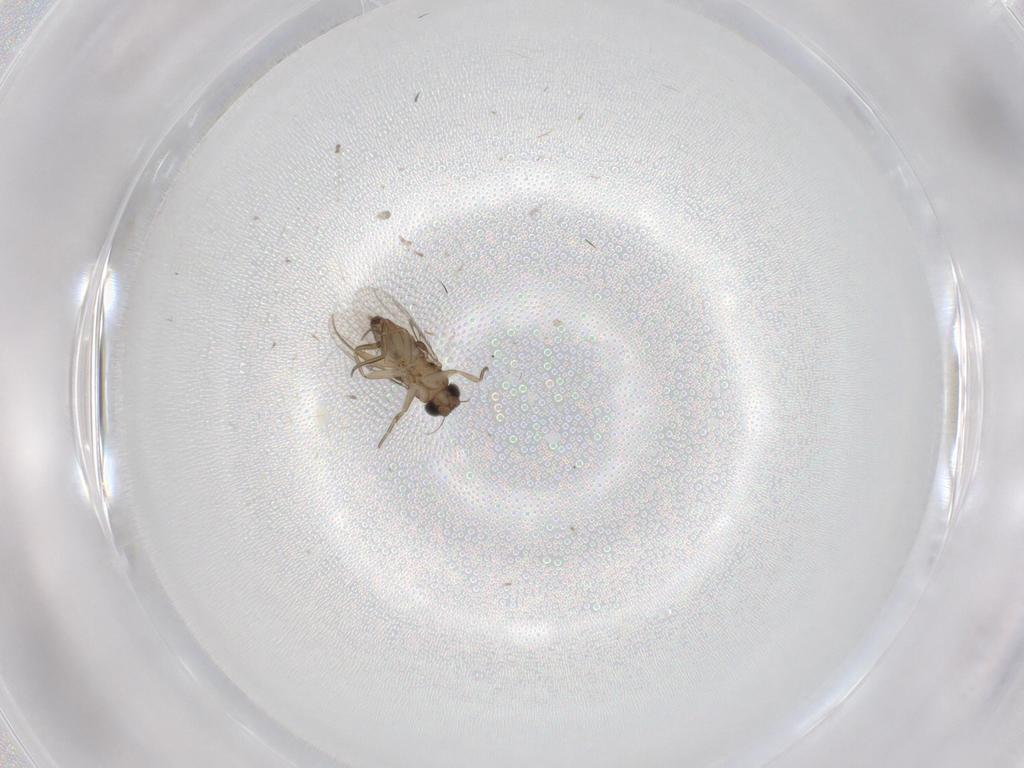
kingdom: Animalia
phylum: Arthropoda
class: Insecta
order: Diptera
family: Phoridae
